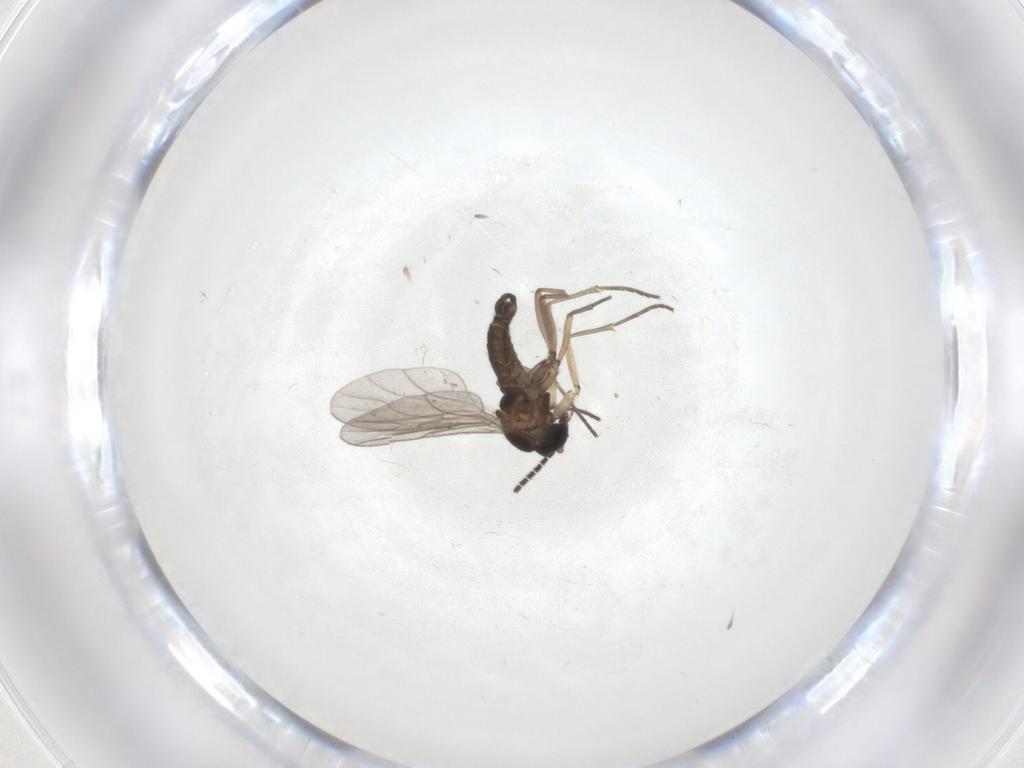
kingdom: Animalia
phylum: Arthropoda
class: Insecta
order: Diptera
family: Sciaridae
